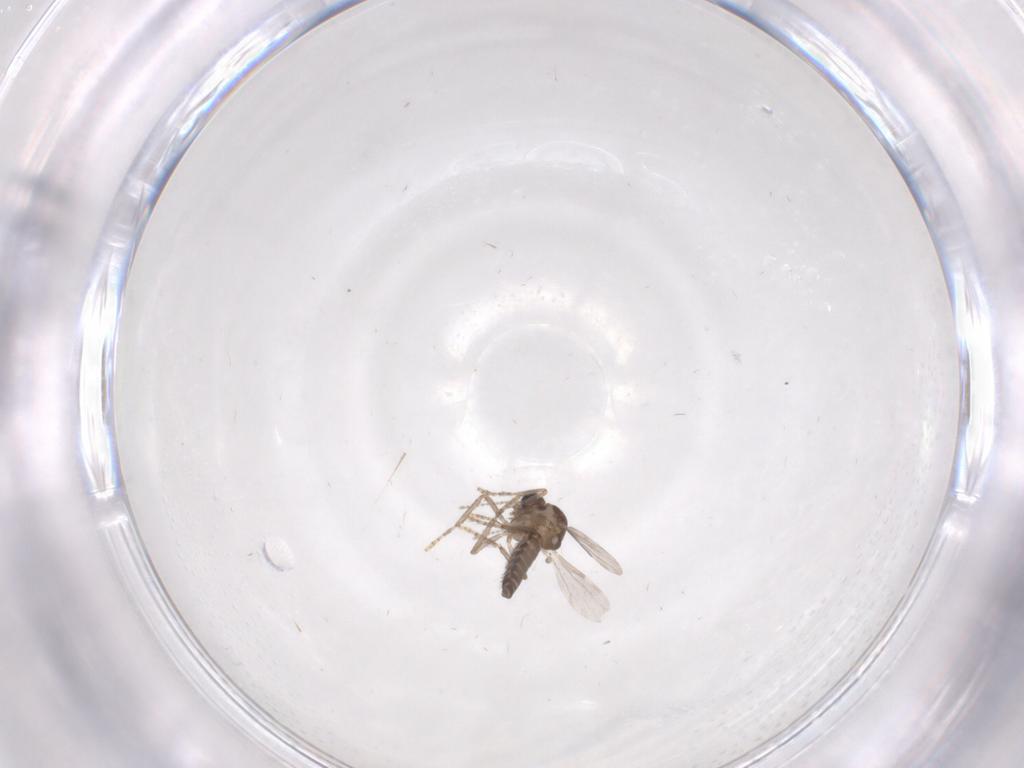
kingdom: Animalia
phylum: Arthropoda
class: Insecta
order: Diptera
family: Ceratopogonidae
